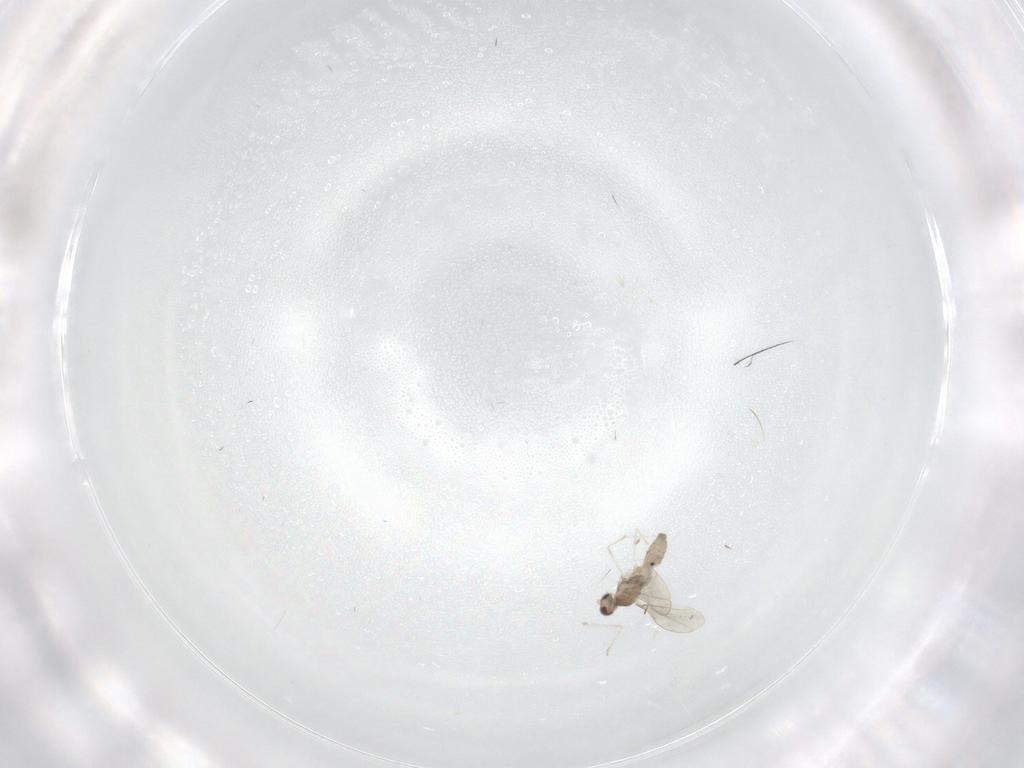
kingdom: Animalia
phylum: Arthropoda
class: Insecta
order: Diptera
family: Cecidomyiidae
